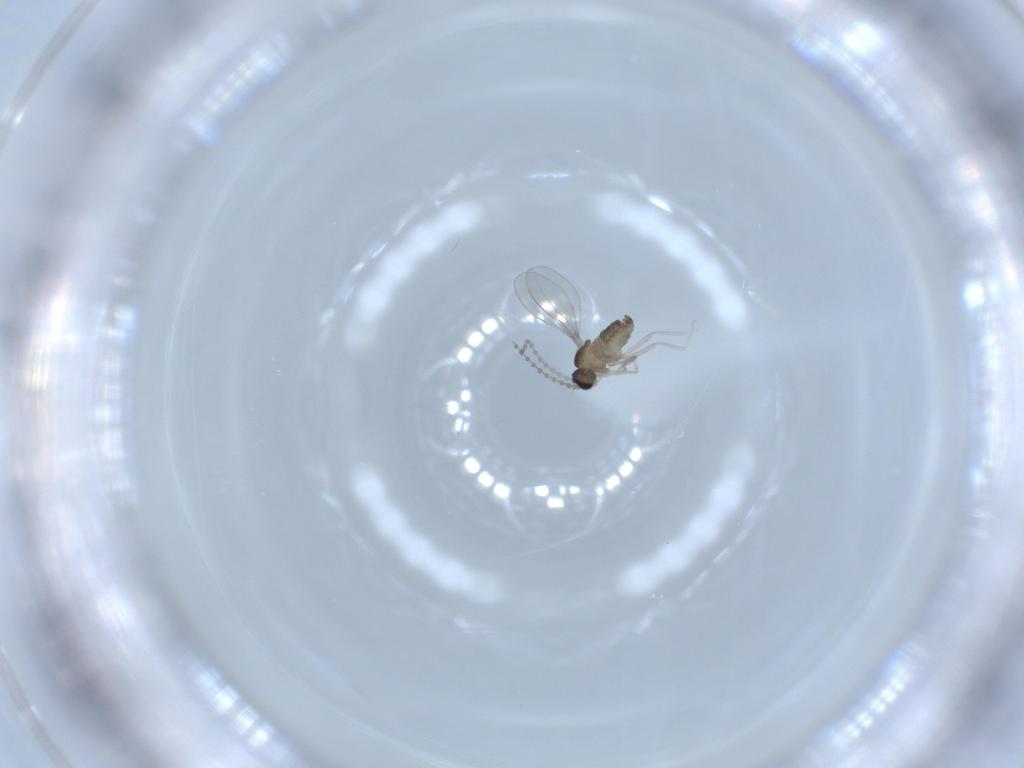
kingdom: Animalia
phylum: Arthropoda
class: Insecta
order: Diptera
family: Cecidomyiidae
